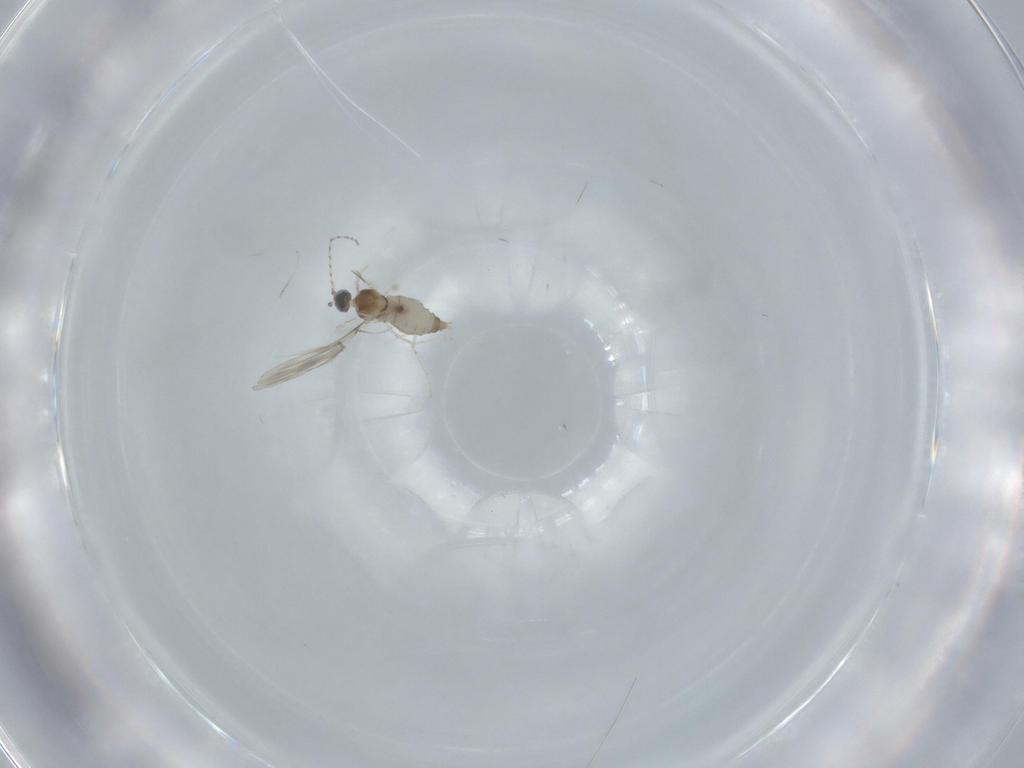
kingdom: Animalia
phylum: Arthropoda
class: Insecta
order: Diptera
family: Cecidomyiidae
